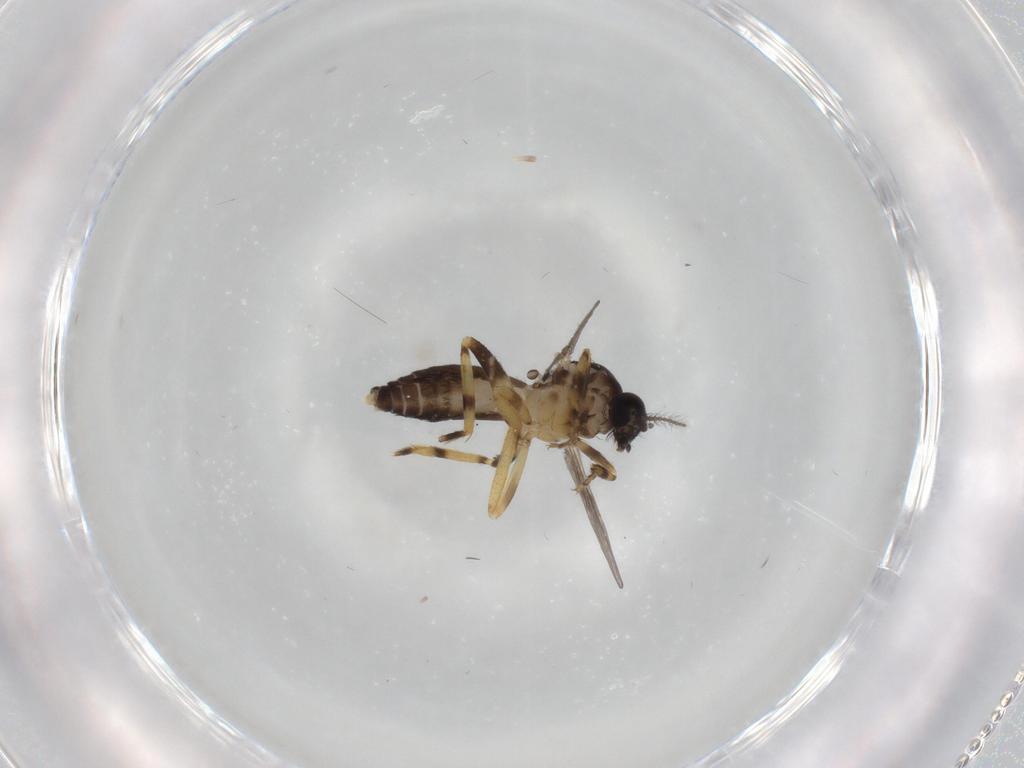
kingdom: Animalia
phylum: Arthropoda
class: Insecta
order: Diptera
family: Ceratopogonidae
